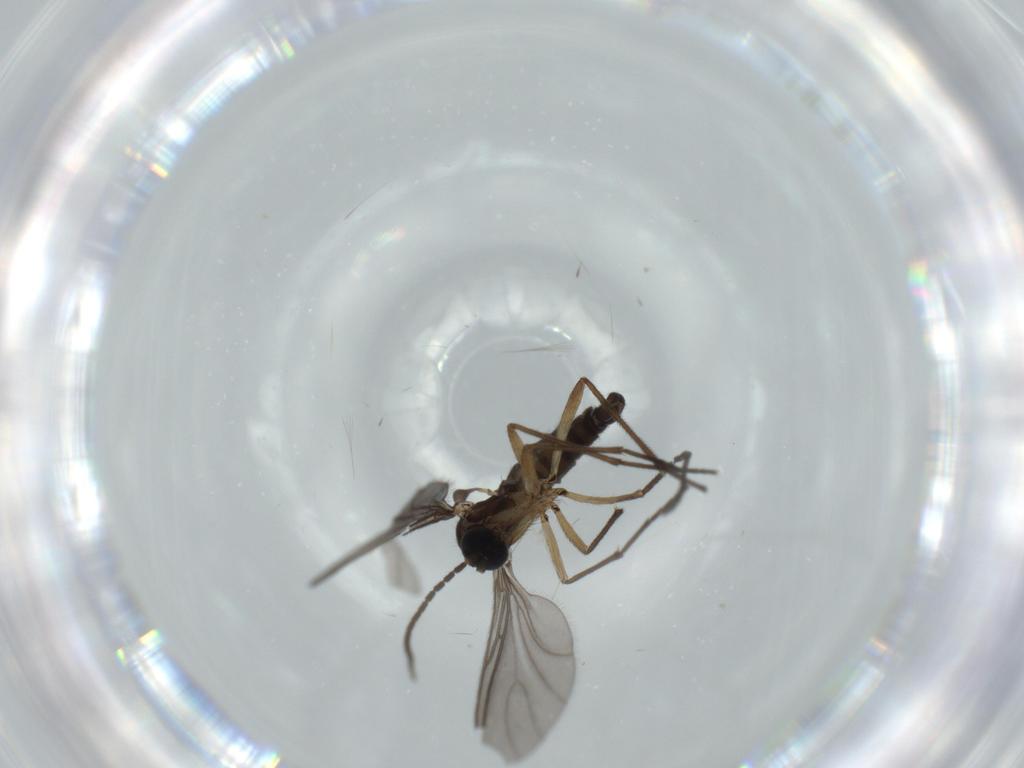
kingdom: Animalia
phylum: Arthropoda
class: Insecta
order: Diptera
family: Sciaridae
